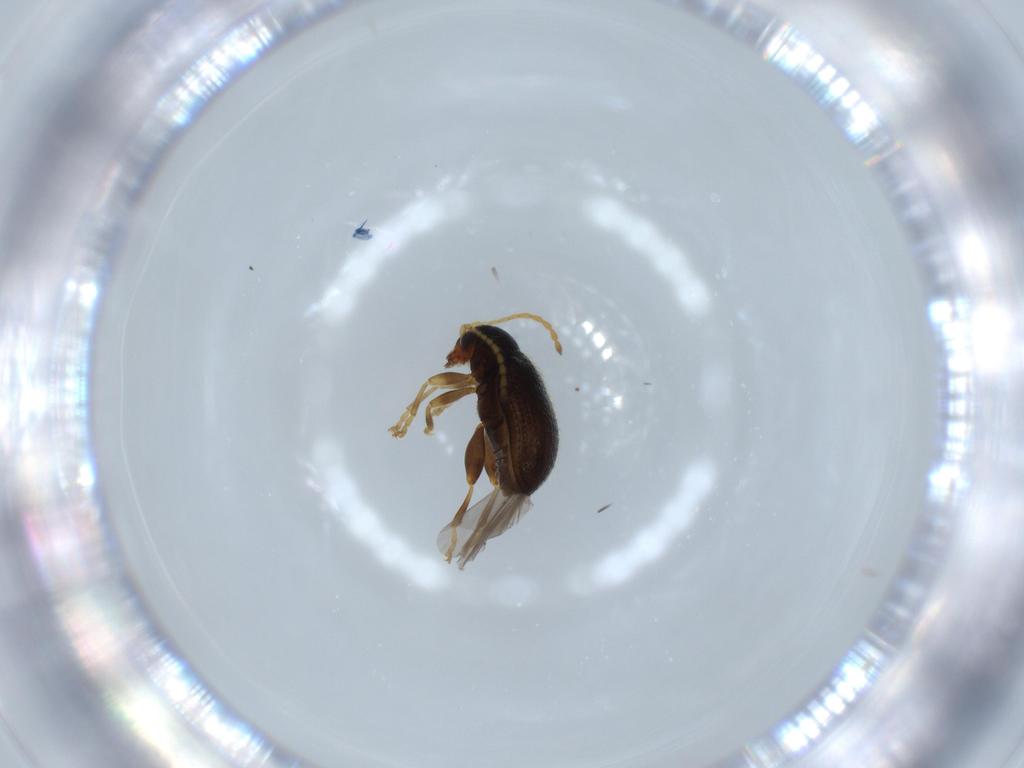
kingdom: Animalia
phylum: Arthropoda
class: Insecta
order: Coleoptera
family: Chrysomelidae
